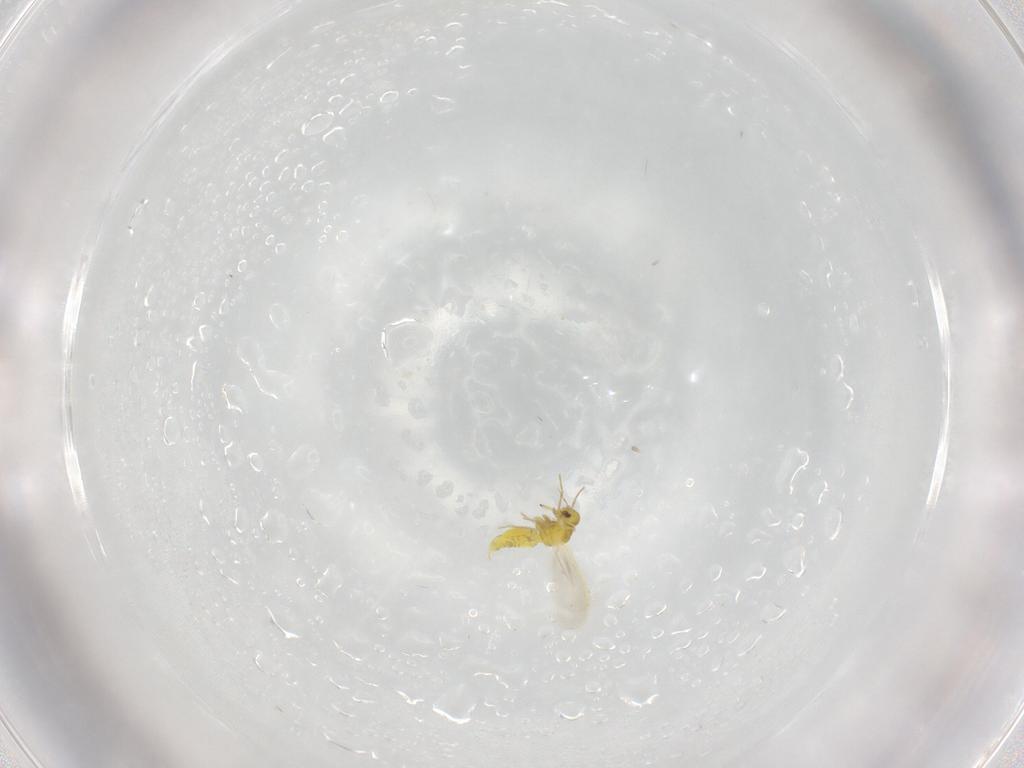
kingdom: Animalia
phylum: Arthropoda
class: Insecta
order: Hemiptera
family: Aleyrodidae
